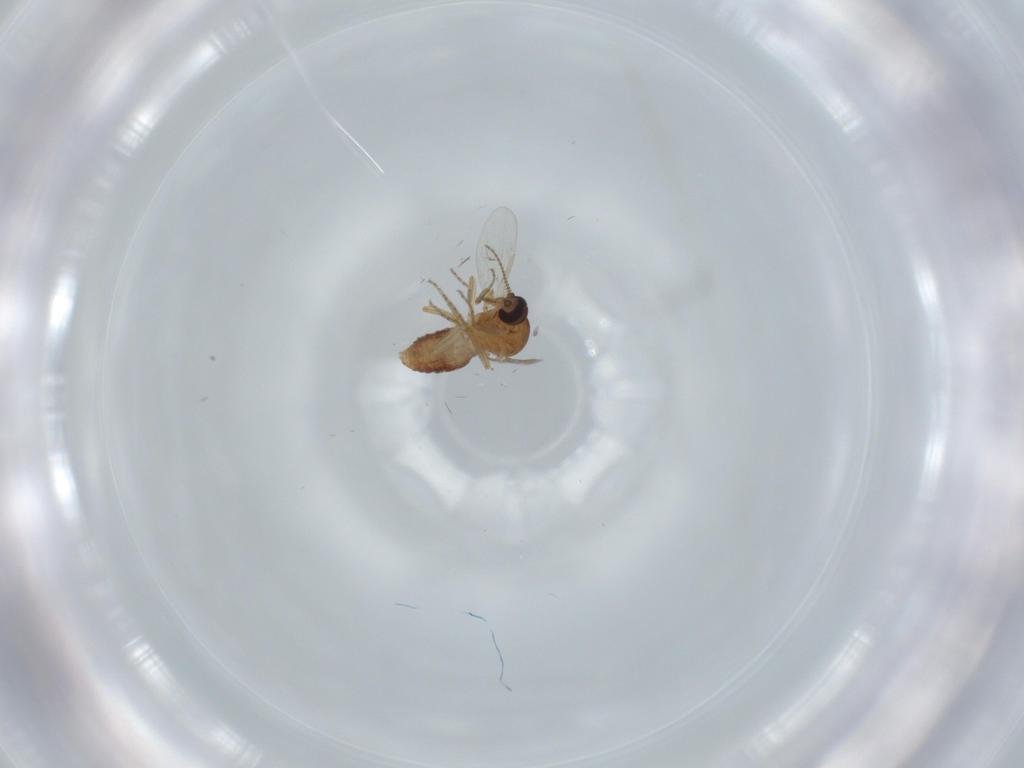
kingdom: Animalia
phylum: Arthropoda
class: Insecta
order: Diptera
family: Ceratopogonidae
